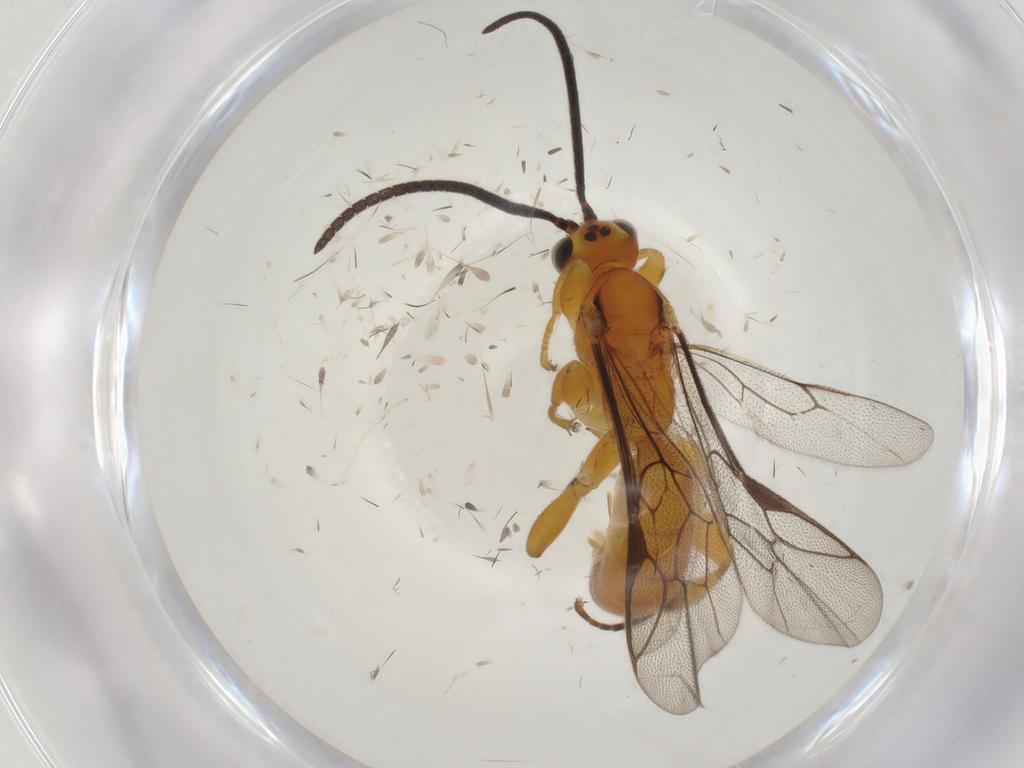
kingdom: Animalia
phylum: Arthropoda
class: Insecta
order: Hymenoptera
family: Ichneumonidae
